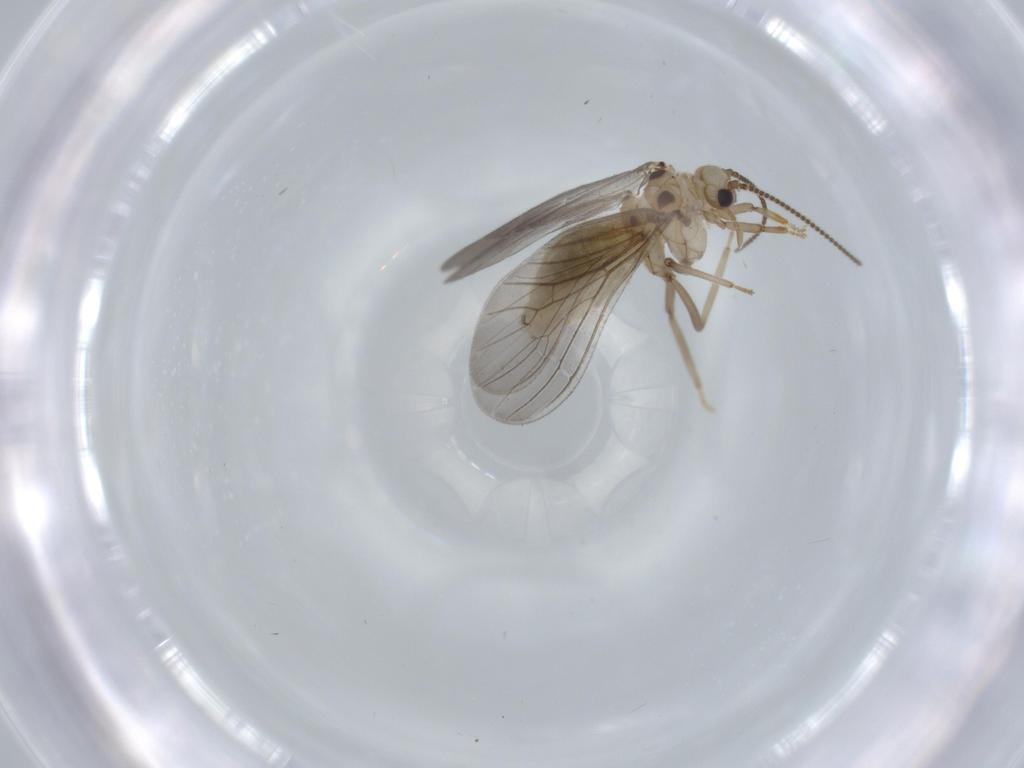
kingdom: Animalia
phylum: Arthropoda
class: Insecta
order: Neuroptera
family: Coniopterygidae
